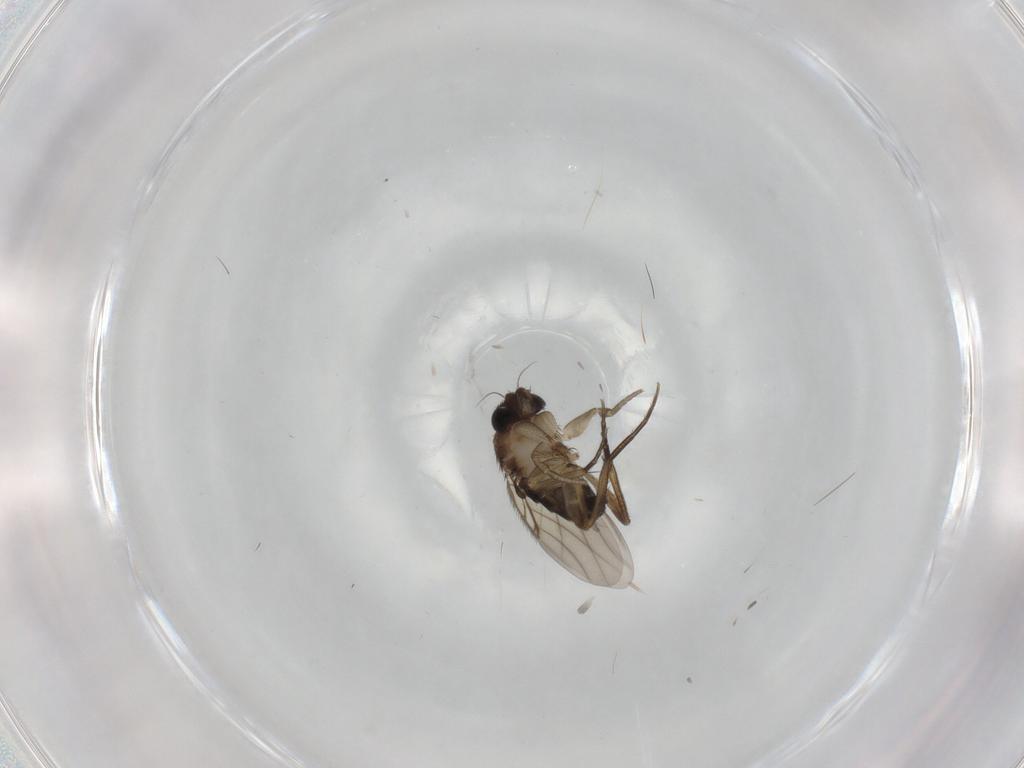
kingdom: Animalia
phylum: Arthropoda
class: Insecta
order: Diptera
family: Phoridae
